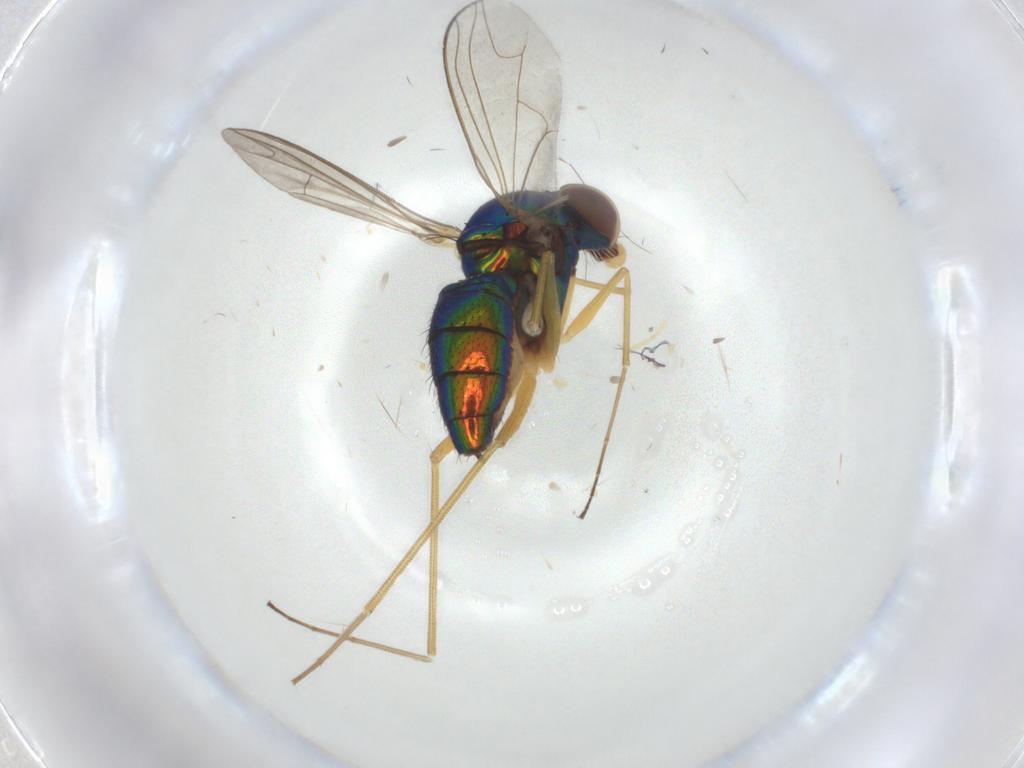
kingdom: Animalia
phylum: Arthropoda
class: Insecta
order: Diptera
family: Dolichopodidae
